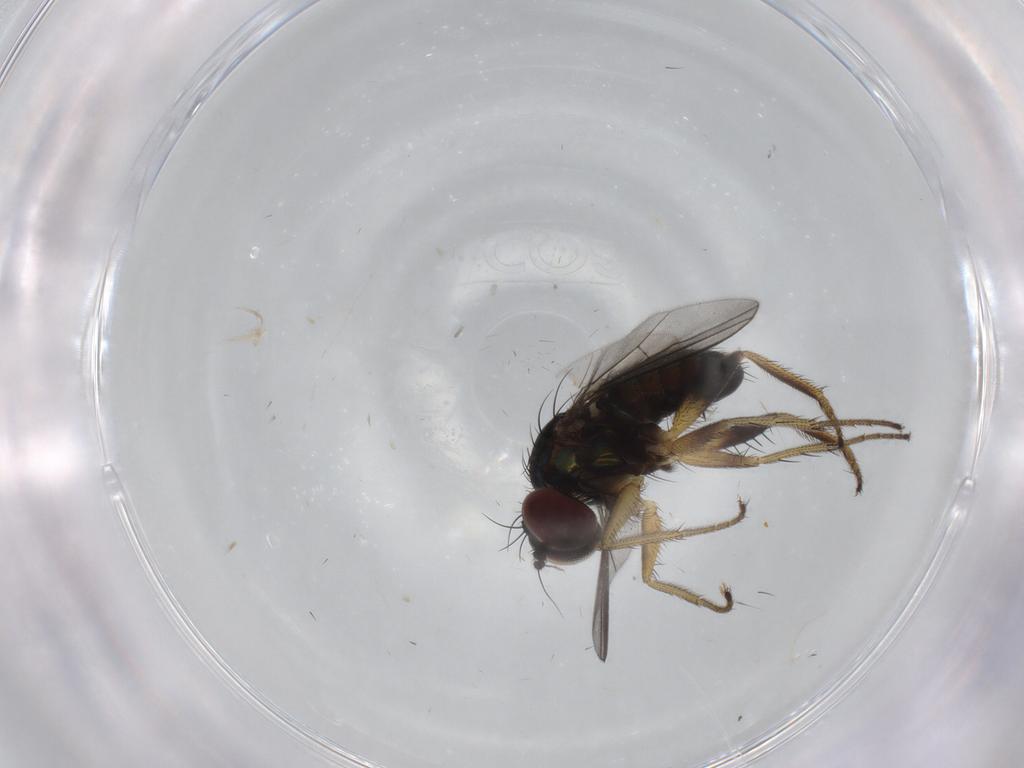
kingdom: Animalia
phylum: Arthropoda
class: Insecta
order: Diptera
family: Dolichopodidae
